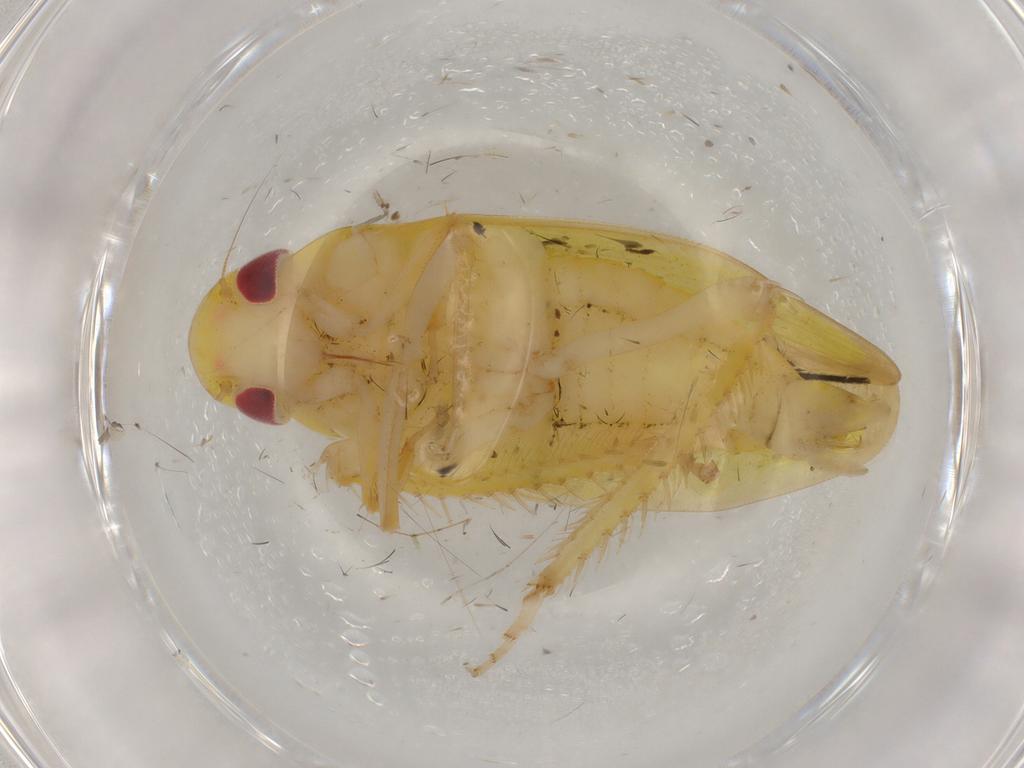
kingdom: Animalia
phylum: Arthropoda
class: Insecta
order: Hemiptera
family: Cicadellidae
